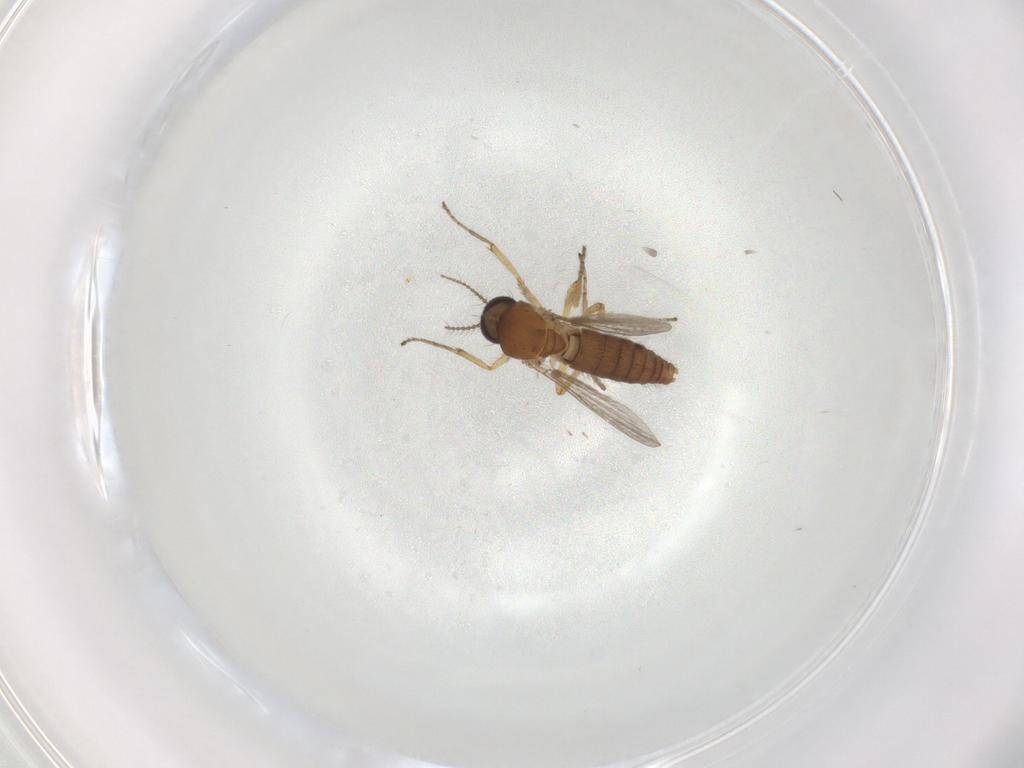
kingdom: Animalia
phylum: Arthropoda
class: Insecta
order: Diptera
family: Ceratopogonidae
